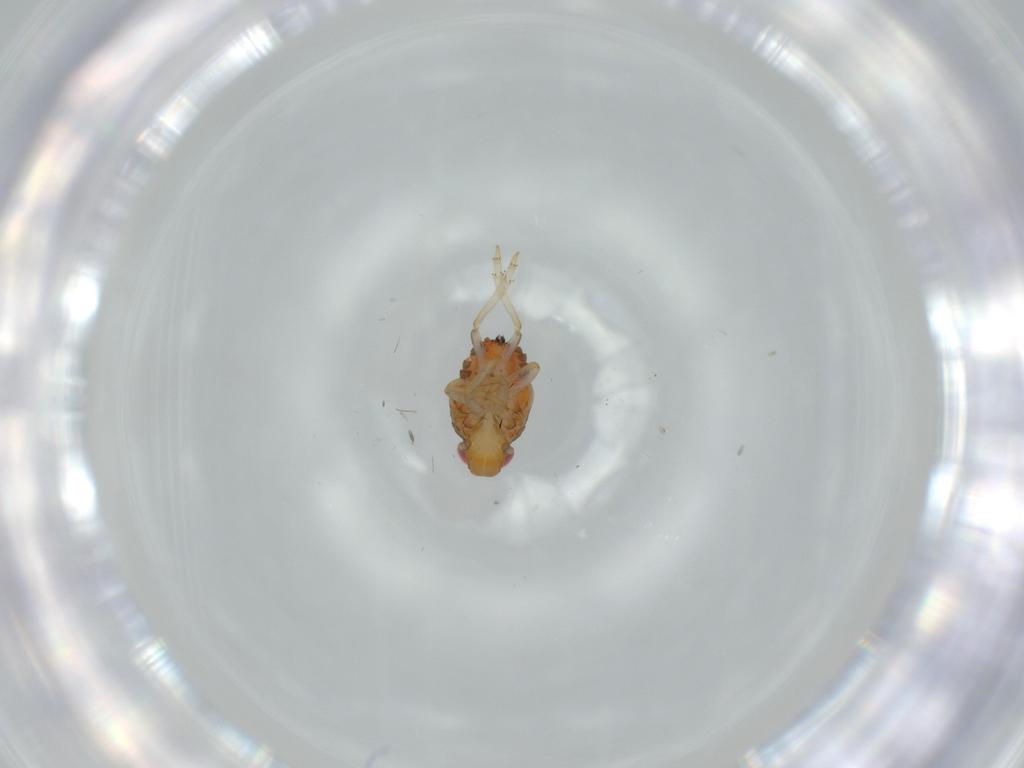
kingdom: Animalia
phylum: Arthropoda
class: Insecta
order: Hemiptera
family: Issidae
